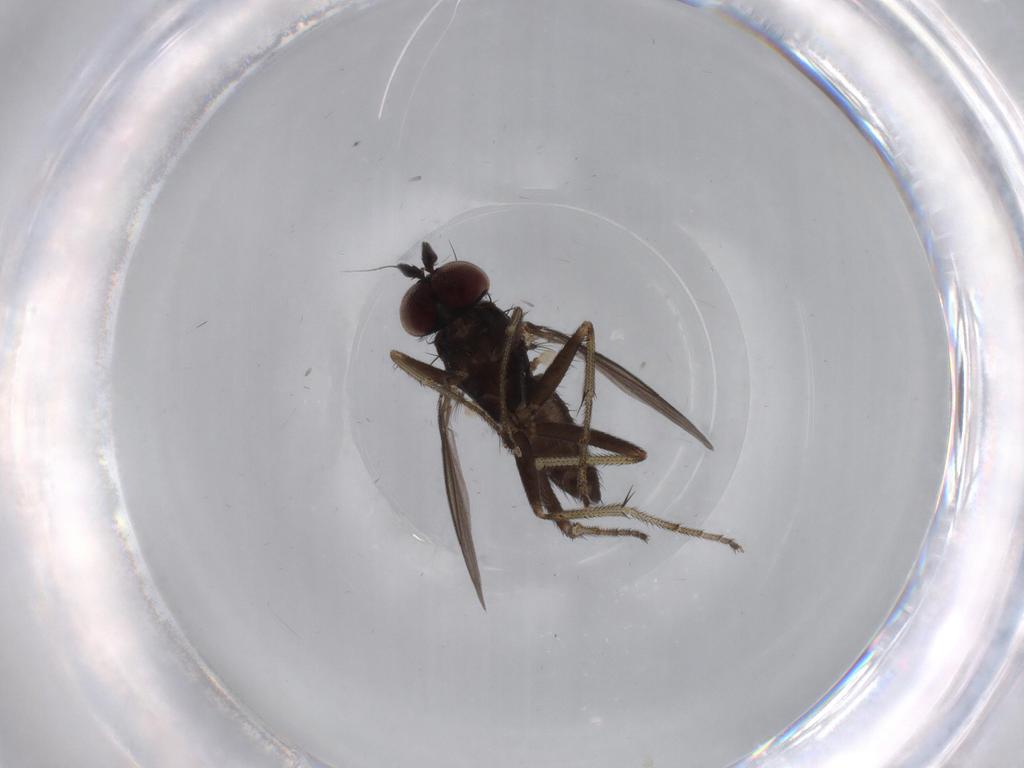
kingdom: Animalia
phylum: Arthropoda
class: Insecta
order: Diptera
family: Dolichopodidae
